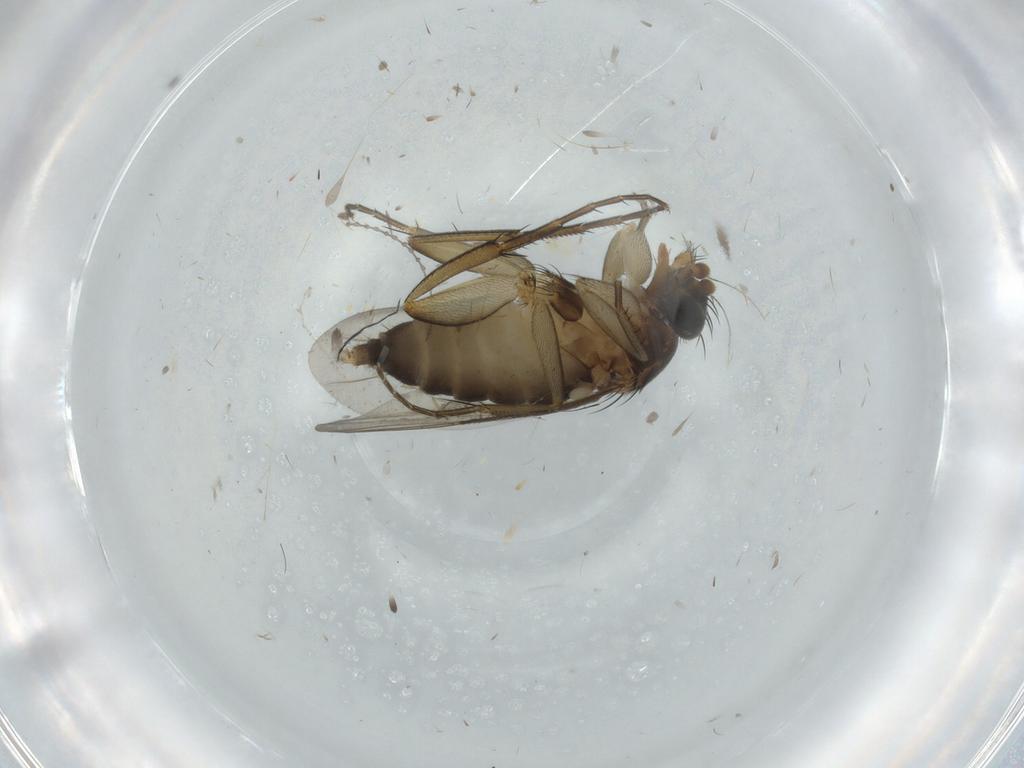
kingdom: Animalia
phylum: Arthropoda
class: Insecta
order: Diptera
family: Phoridae
